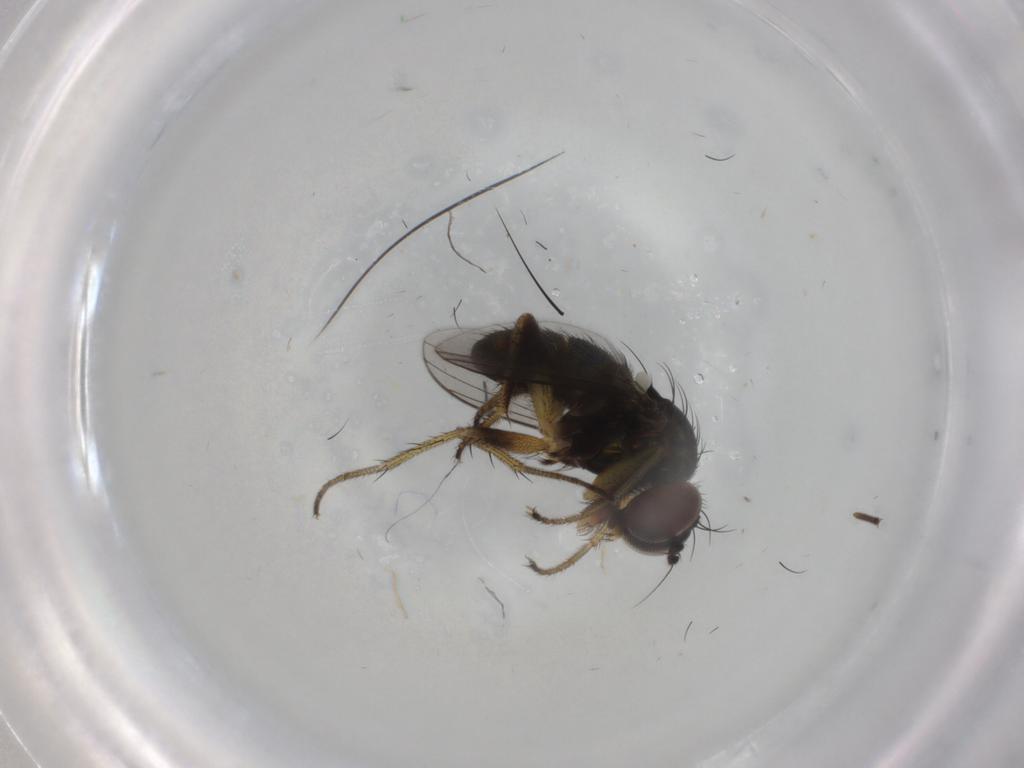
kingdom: Animalia
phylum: Arthropoda
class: Insecta
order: Diptera
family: Dolichopodidae
